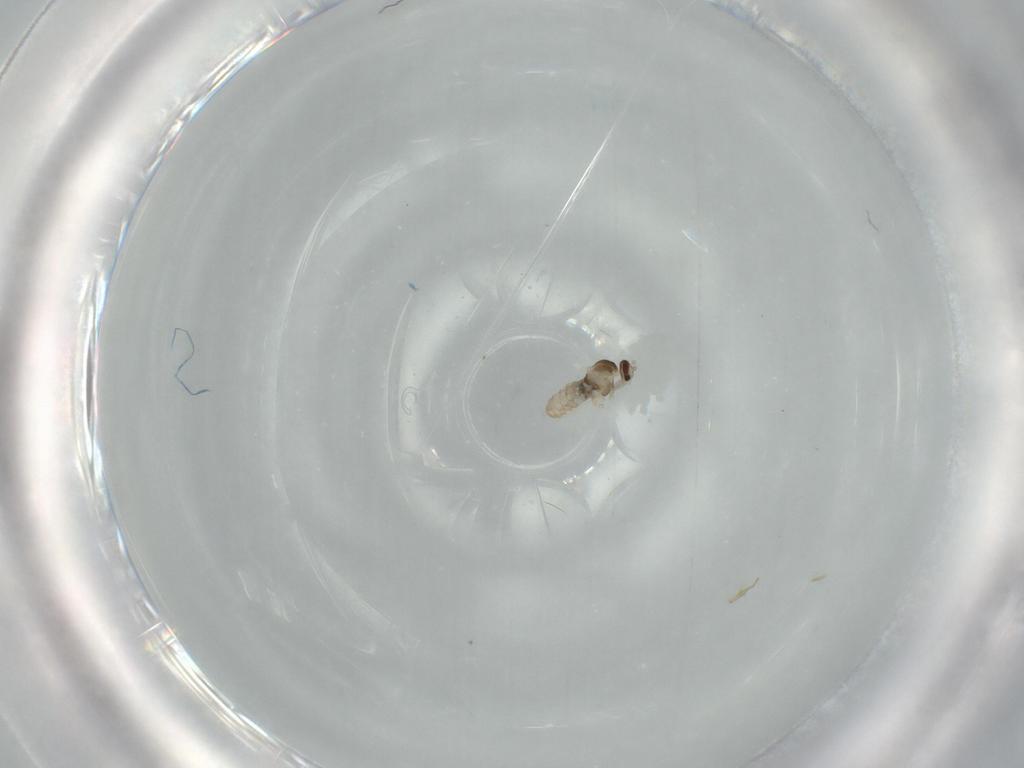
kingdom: Animalia
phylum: Arthropoda
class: Insecta
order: Diptera
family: Cecidomyiidae
